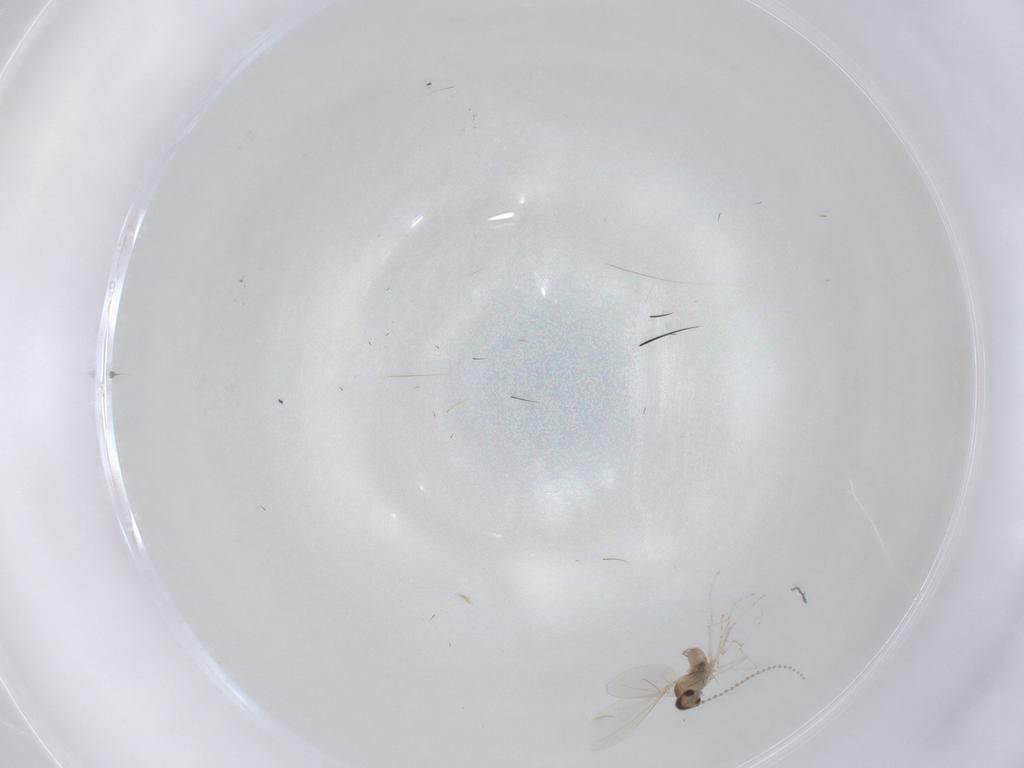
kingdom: Animalia
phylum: Arthropoda
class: Insecta
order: Diptera
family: Cecidomyiidae
